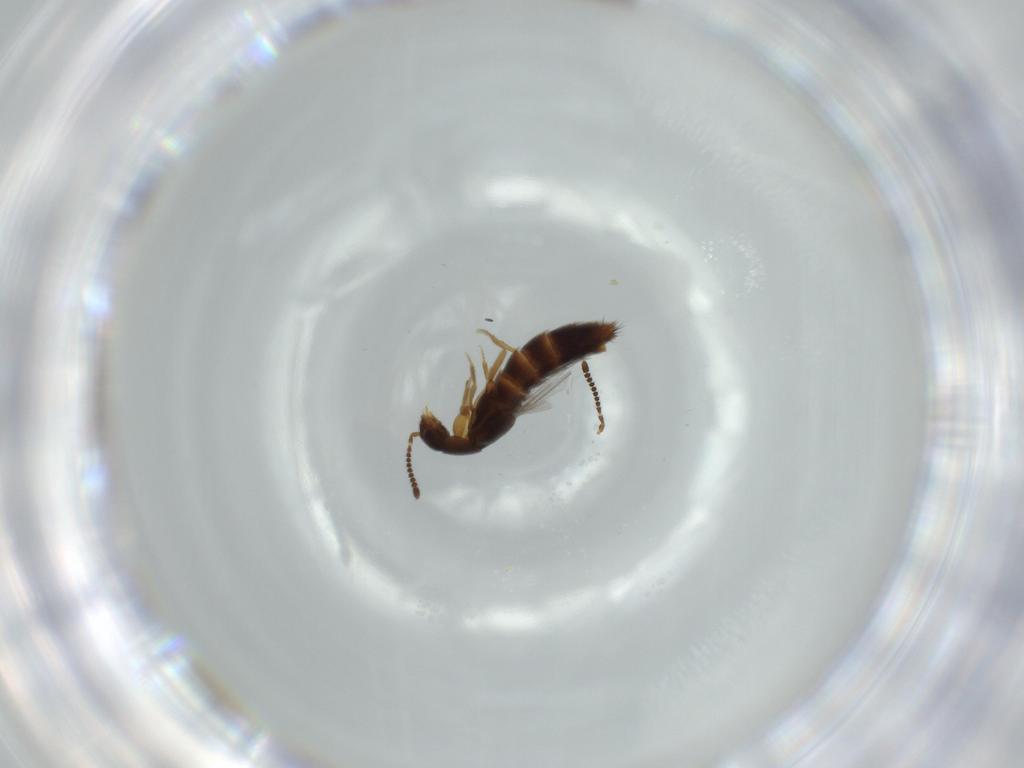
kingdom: Animalia
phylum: Arthropoda
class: Insecta
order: Coleoptera
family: Staphylinidae
